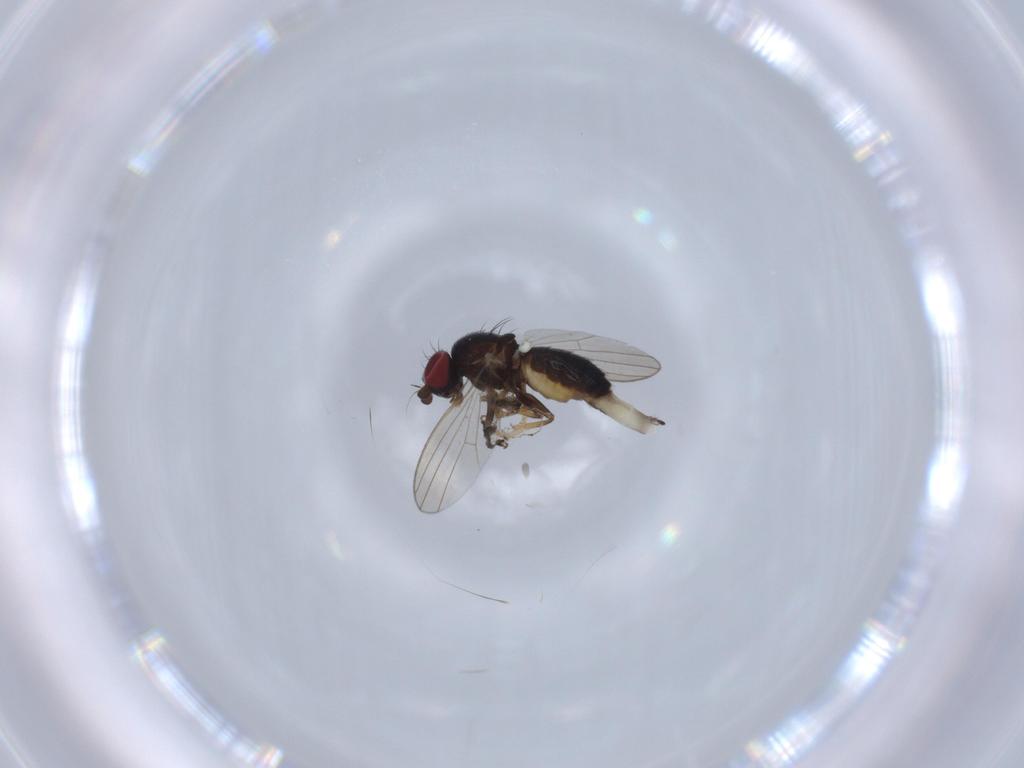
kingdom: Animalia
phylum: Arthropoda
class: Insecta
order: Diptera
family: Chamaemyiidae
